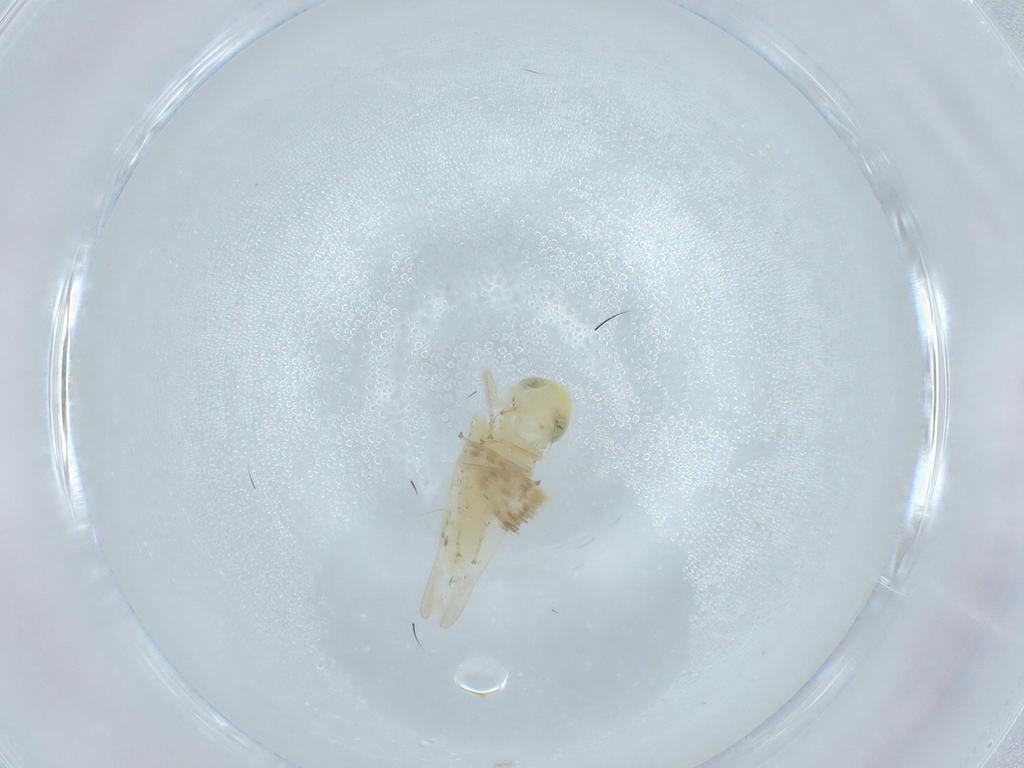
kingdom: Animalia
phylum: Arthropoda
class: Insecta
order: Hemiptera
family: Aleyrodidae
